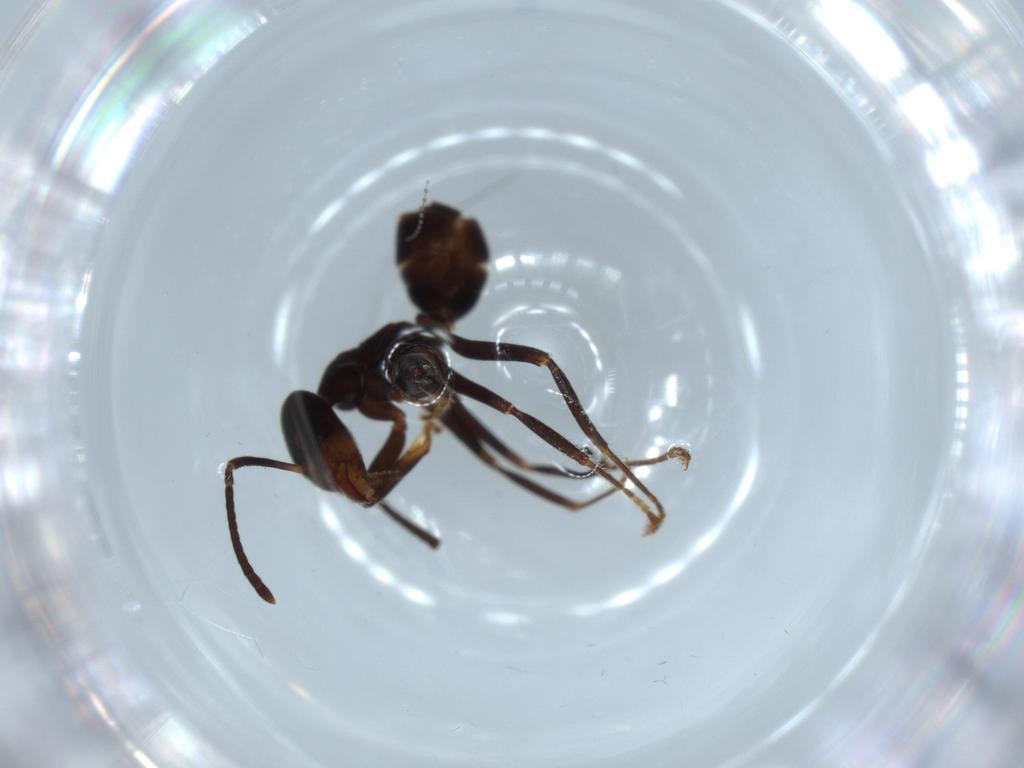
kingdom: Animalia
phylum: Arthropoda
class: Insecta
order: Hymenoptera
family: Formicidae
